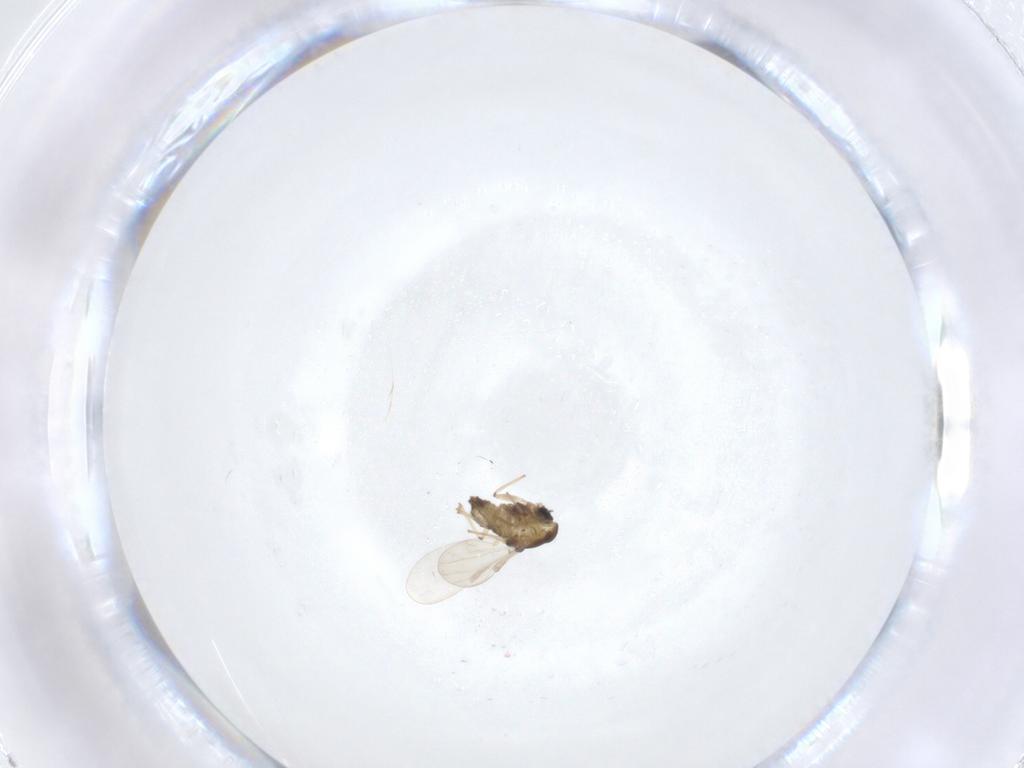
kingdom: Animalia
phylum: Arthropoda
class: Insecta
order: Diptera
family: Chironomidae
